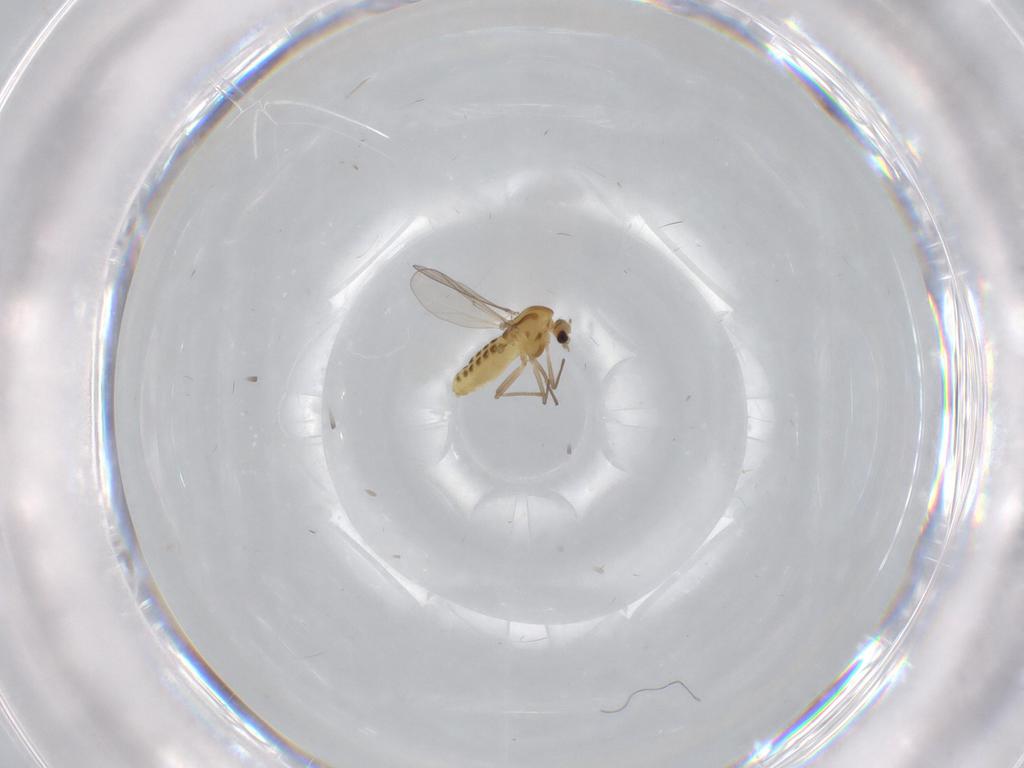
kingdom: Animalia
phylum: Arthropoda
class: Insecta
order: Diptera
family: Chironomidae
